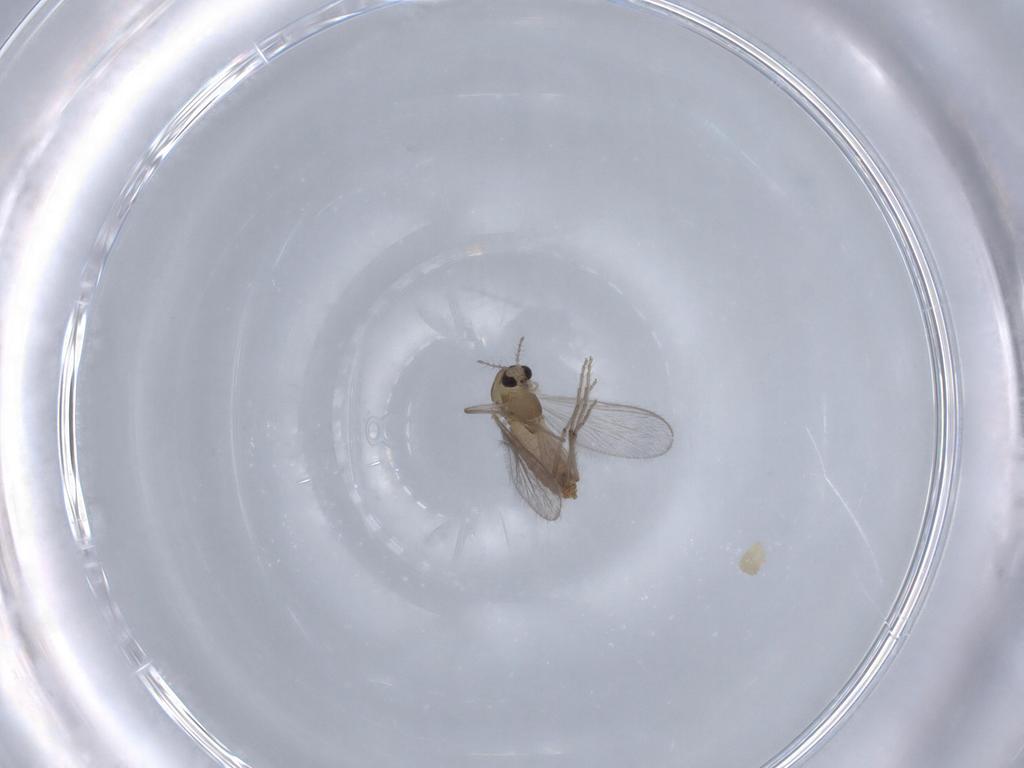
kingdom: Animalia
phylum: Arthropoda
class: Insecta
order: Diptera
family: Chironomidae
